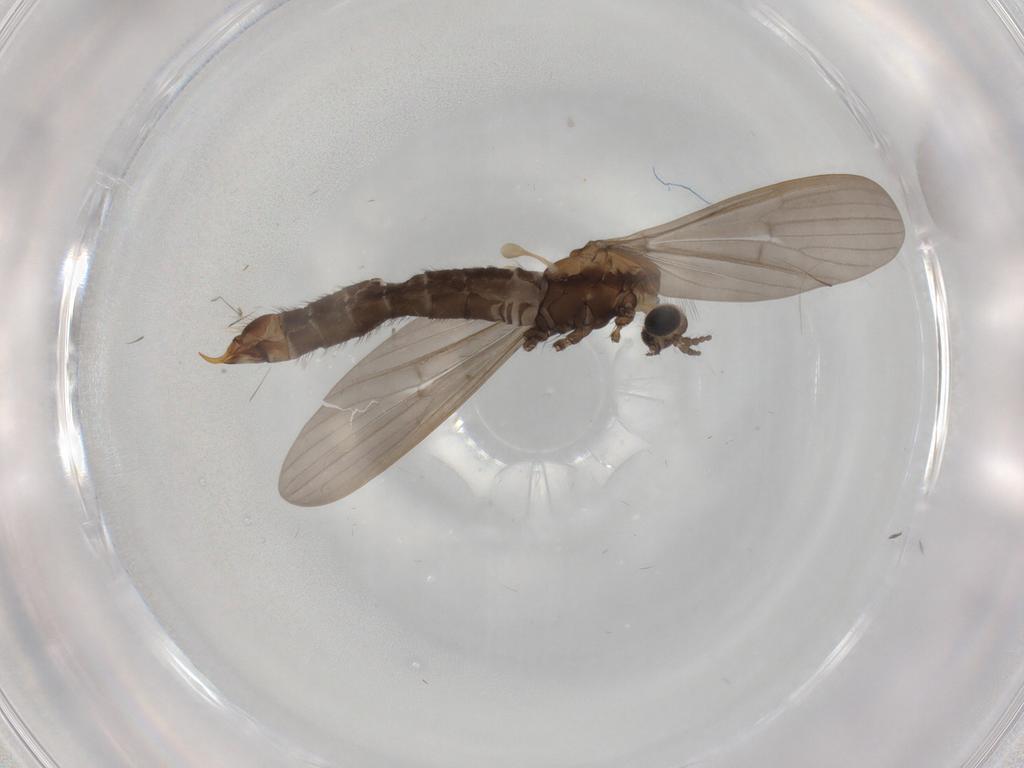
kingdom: Animalia
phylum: Arthropoda
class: Insecta
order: Diptera
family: Limoniidae
